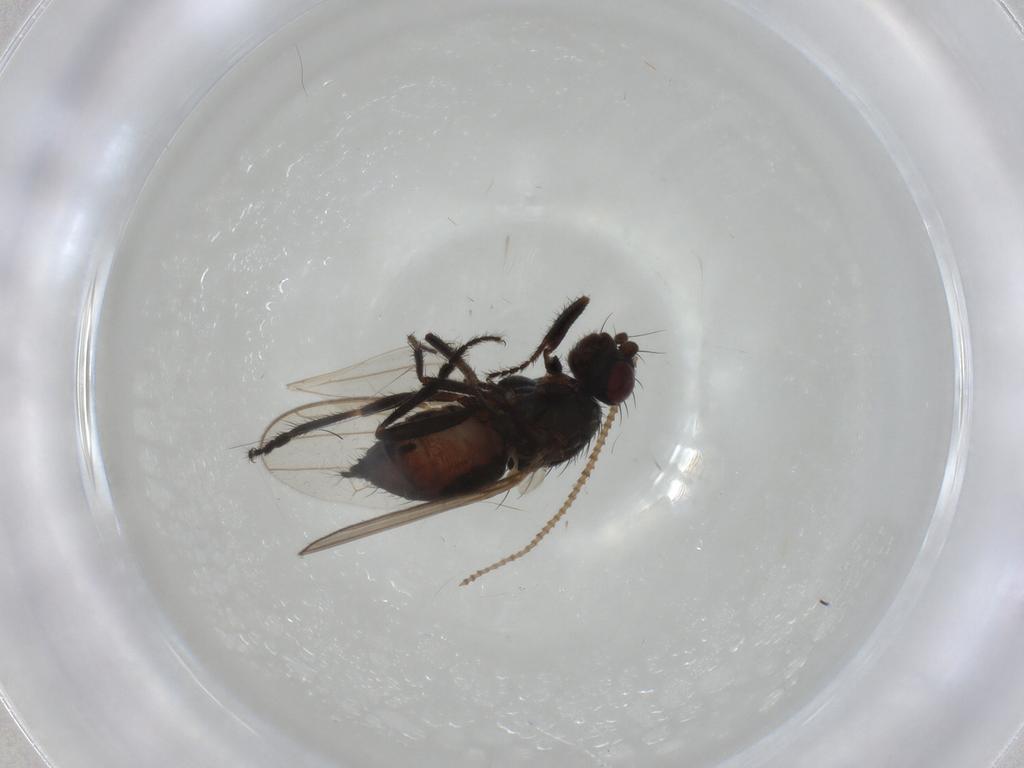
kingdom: Animalia
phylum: Arthropoda
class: Insecta
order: Diptera
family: Sphaeroceridae
